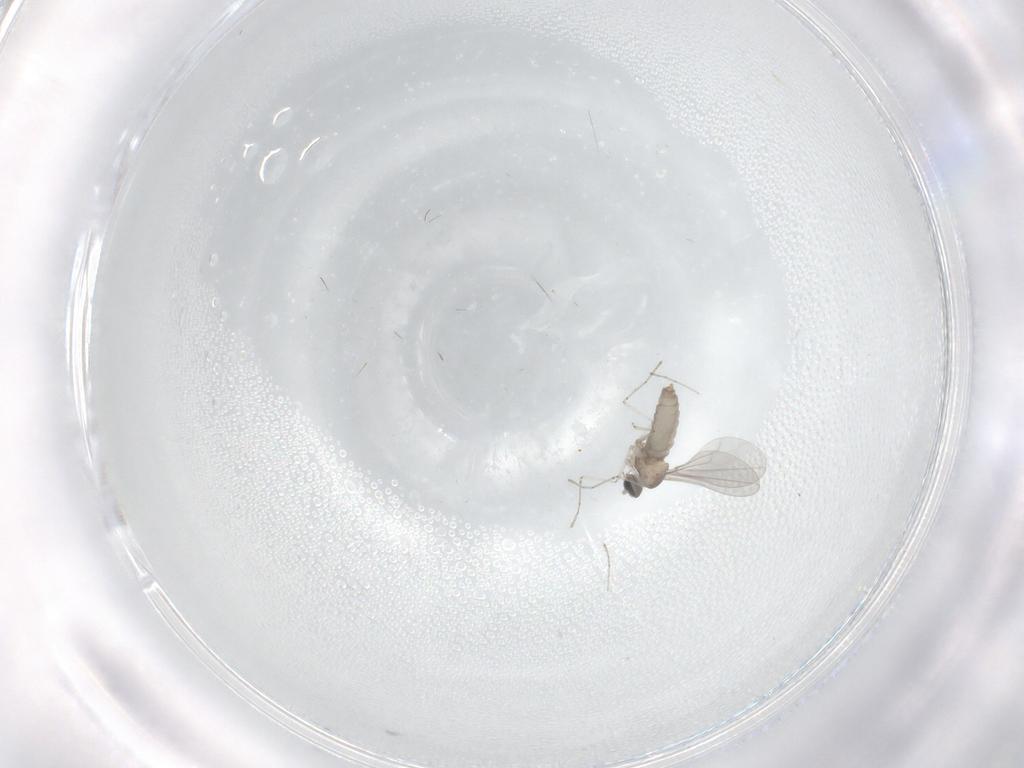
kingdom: Animalia
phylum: Arthropoda
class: Insecta
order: Diptera
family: Cecidomyiidae
